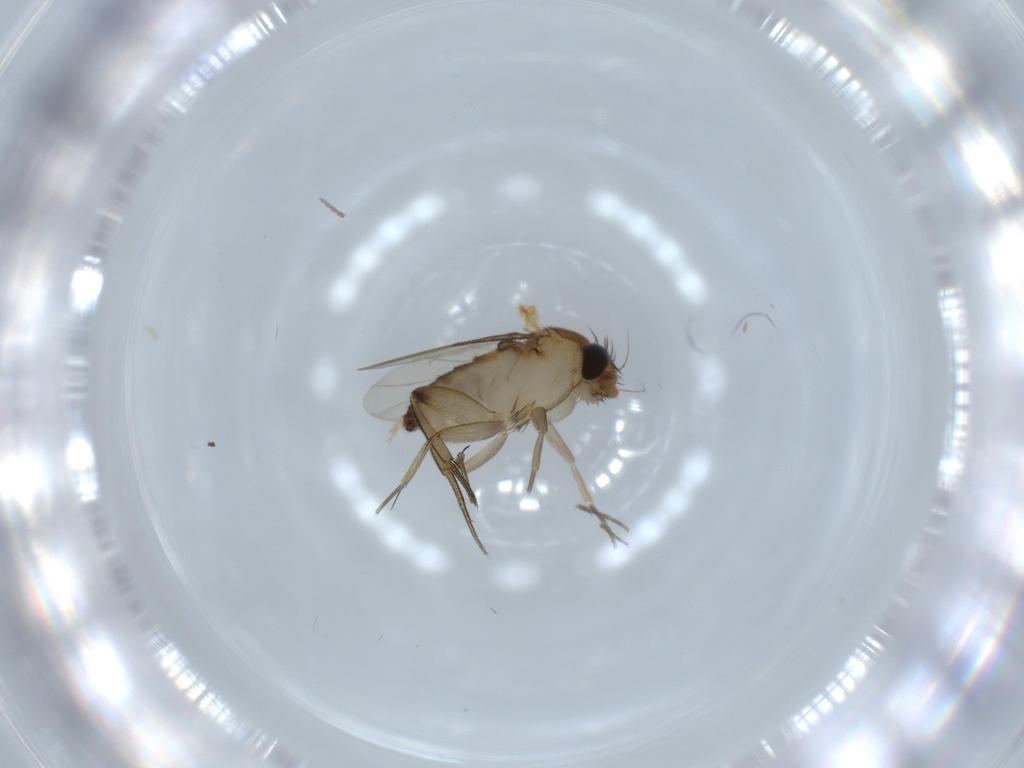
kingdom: Animalia
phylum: Arthropoda
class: Insecta
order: Diptera
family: Phoridae
